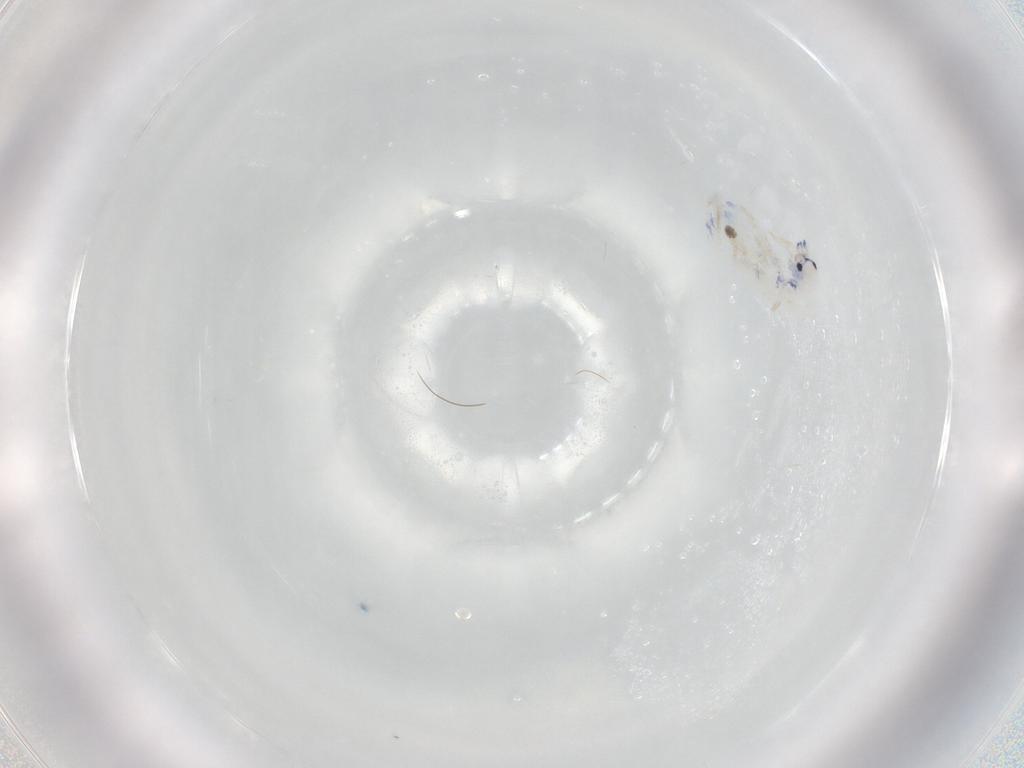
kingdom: Animalia
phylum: Arthropoda
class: Collembola
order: Entomobryomorpha
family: Entomobryidae
